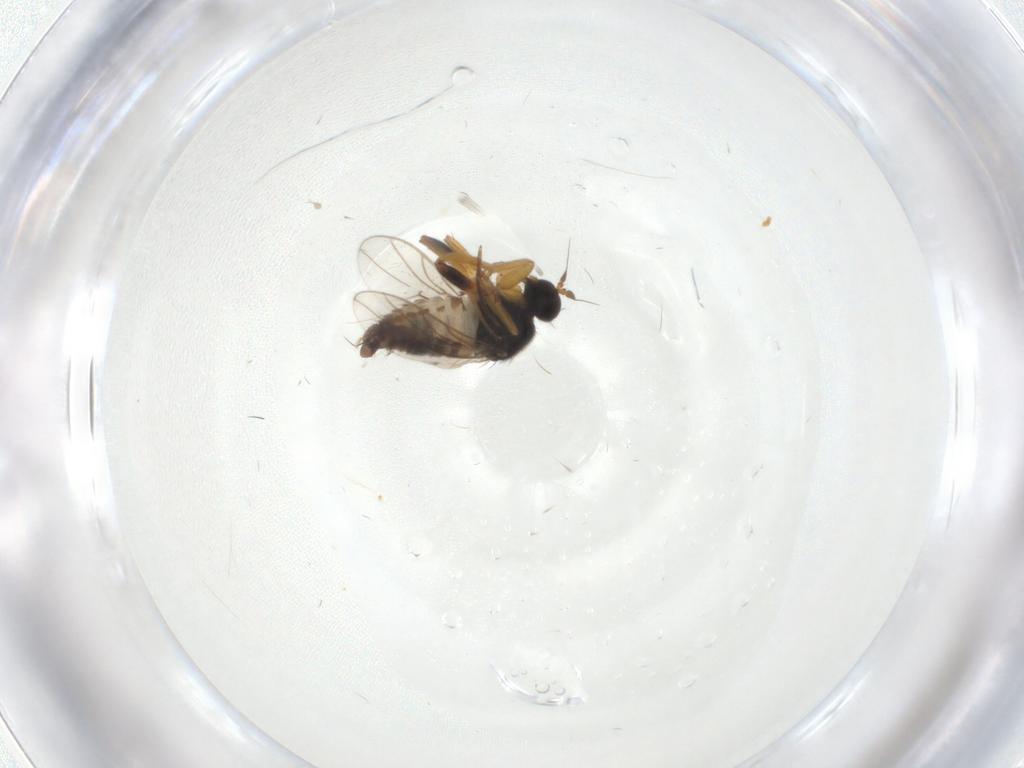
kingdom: Animalia
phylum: Arthropoda
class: Insecta
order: Diptera
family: Hybotidae
